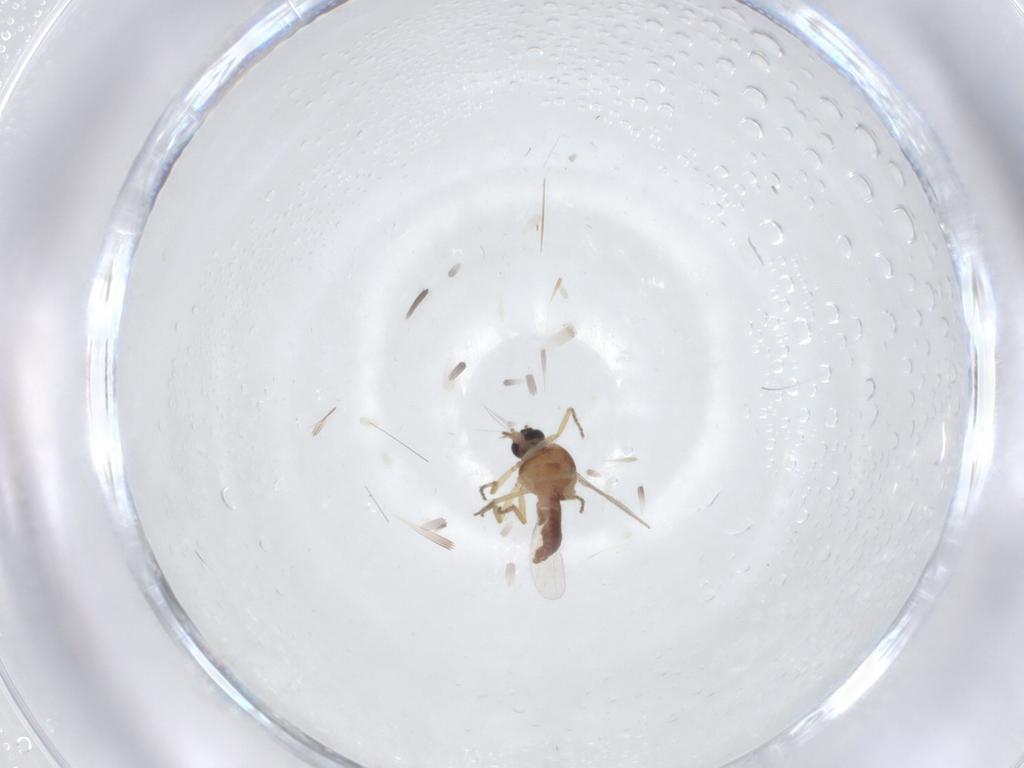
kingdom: Animalia
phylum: Arthropoda
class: Insecta
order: Diptera
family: Ceratopogonidae
